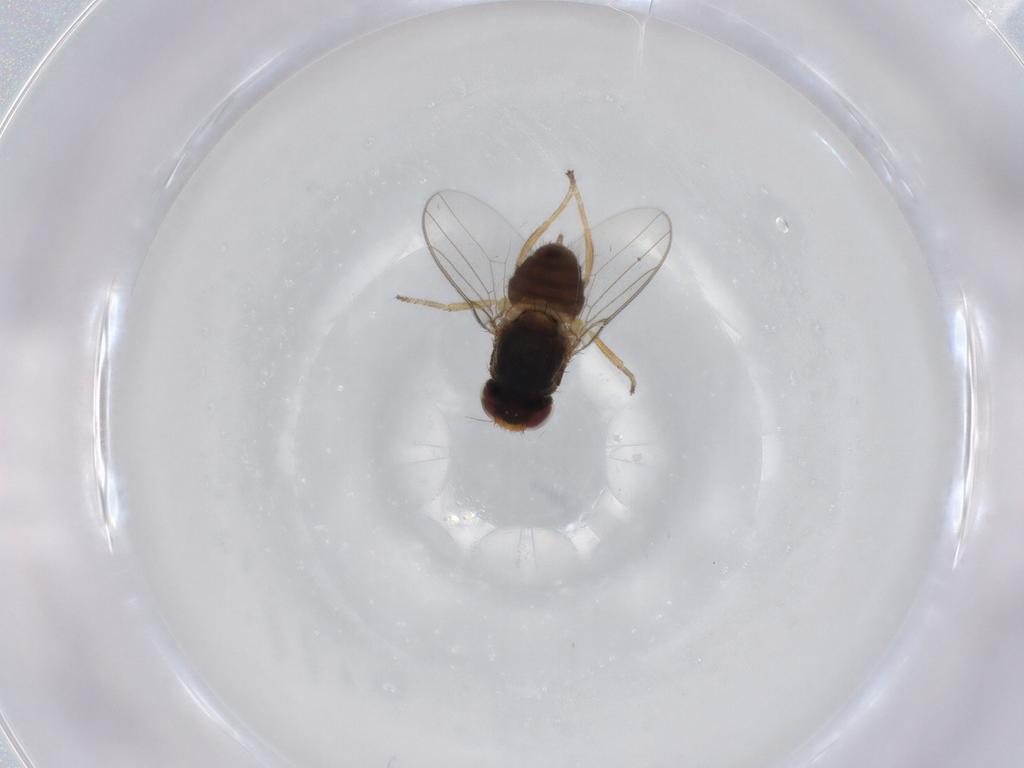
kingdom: Animalia
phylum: Arthropoda
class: Insecta
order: Diptera
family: Chloropidae
